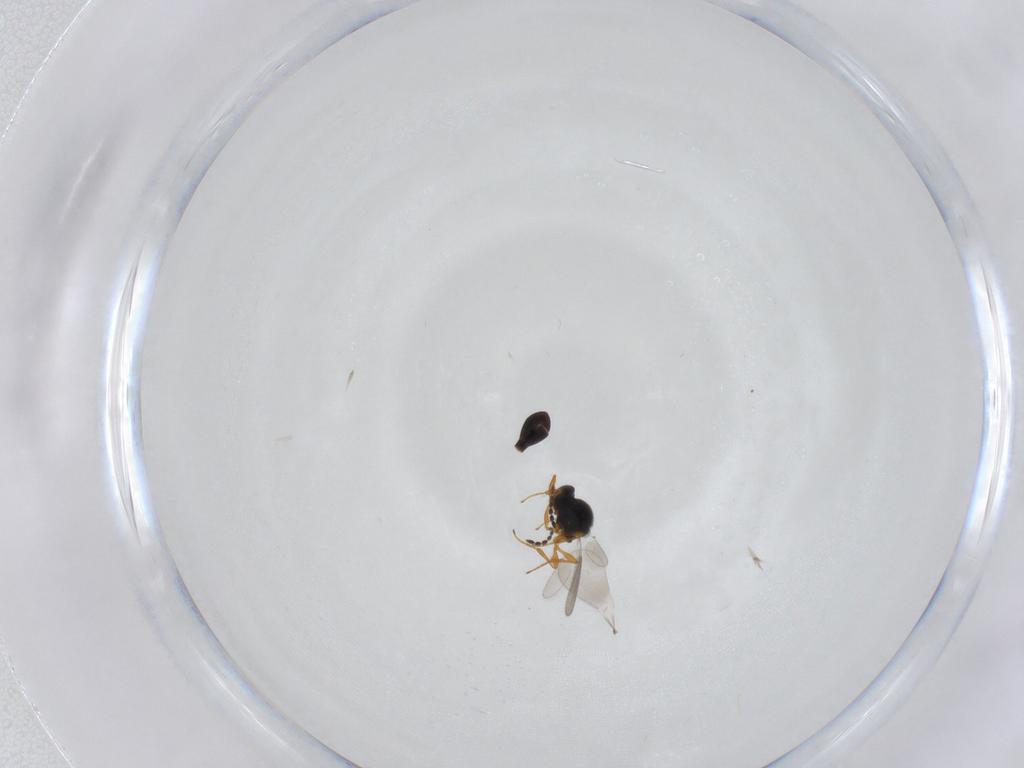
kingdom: Animalia
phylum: Arthropoda
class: Insecta
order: Hymenoptera
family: Platygastridae
